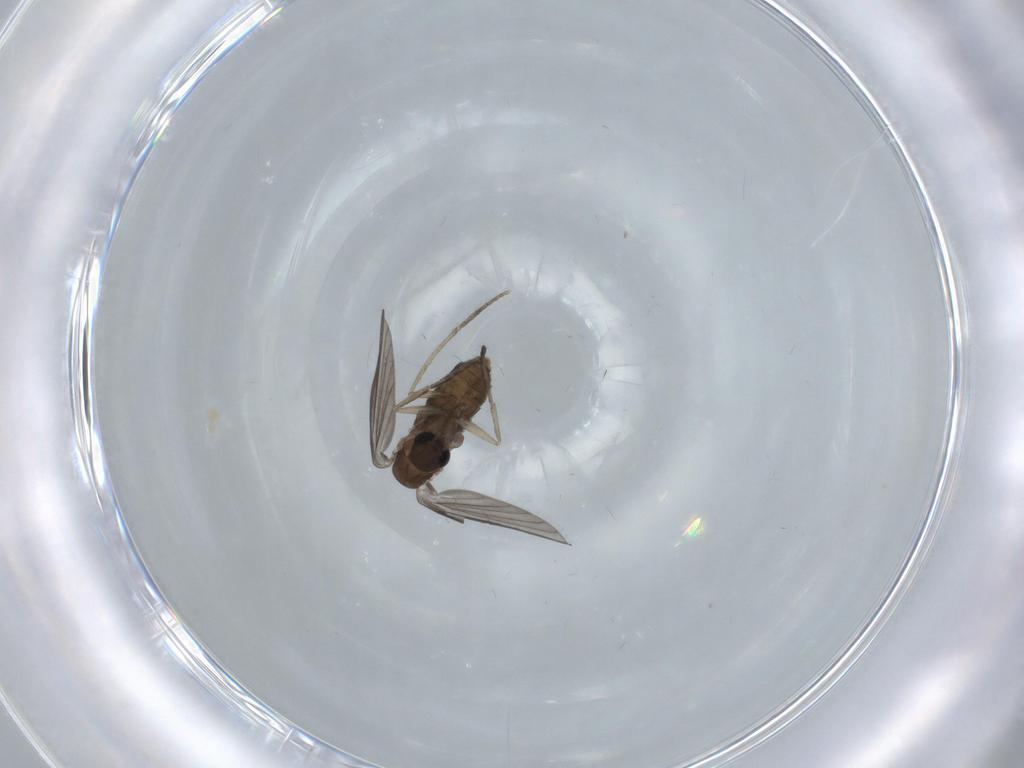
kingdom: Animalia
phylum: Arthropoda
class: Insecta
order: Diptera
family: Psychodidae
